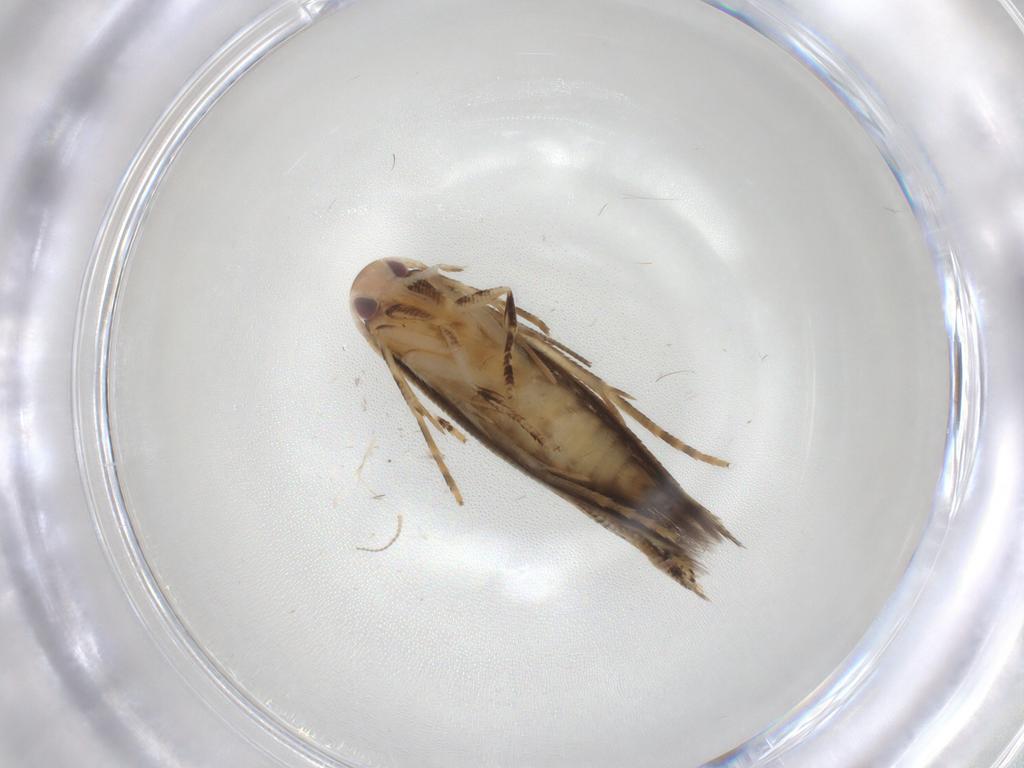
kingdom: Animalia
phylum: Arthropoda
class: Insecta
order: Lepidoptera
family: Momphidae
